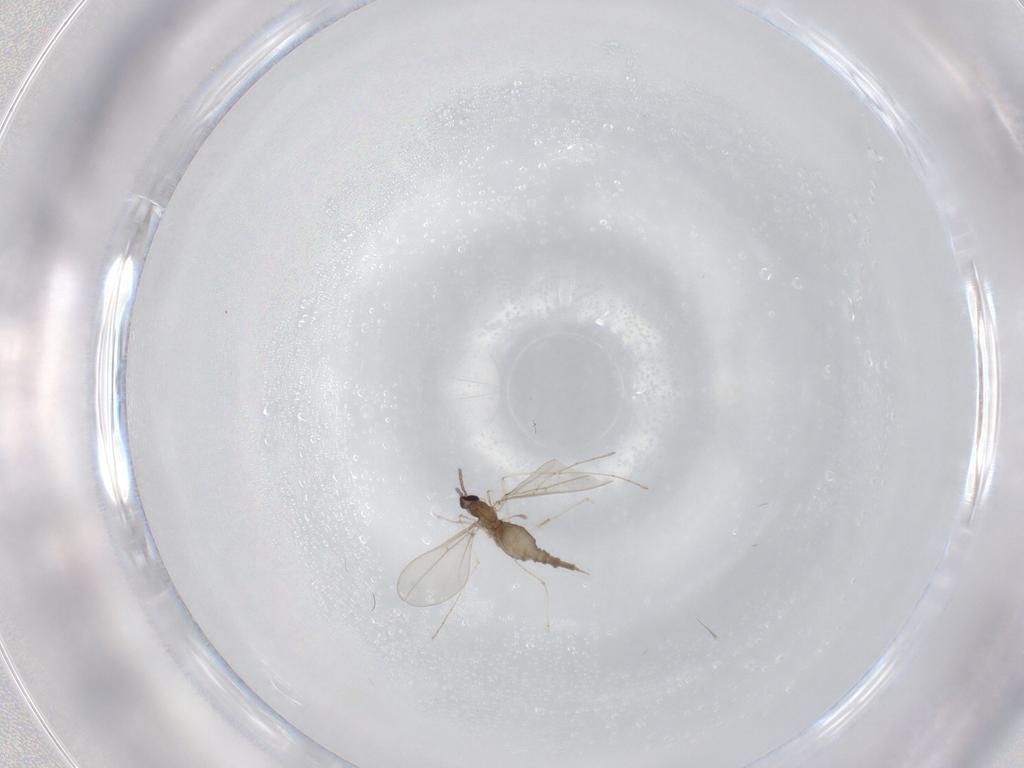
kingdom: Animalia
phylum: Arthropoda
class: Insecta
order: Diptera
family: Cecidomyiidae
